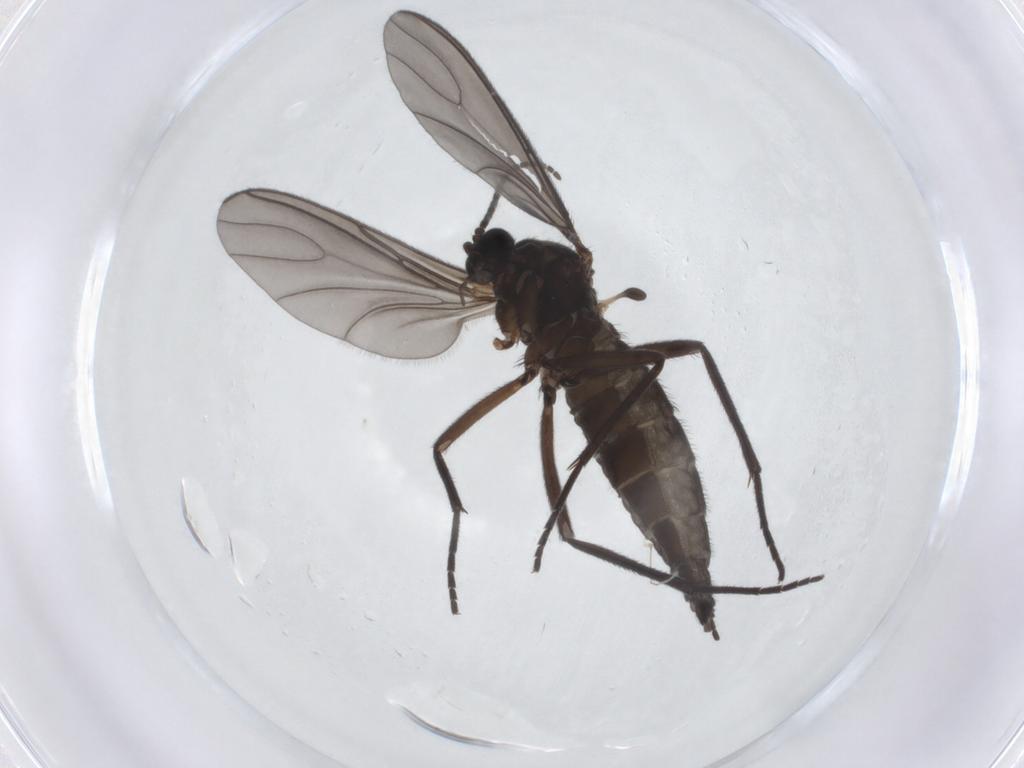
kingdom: Animalia
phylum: Arthropoda
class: Insecta
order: Diptera
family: Sciaridae
